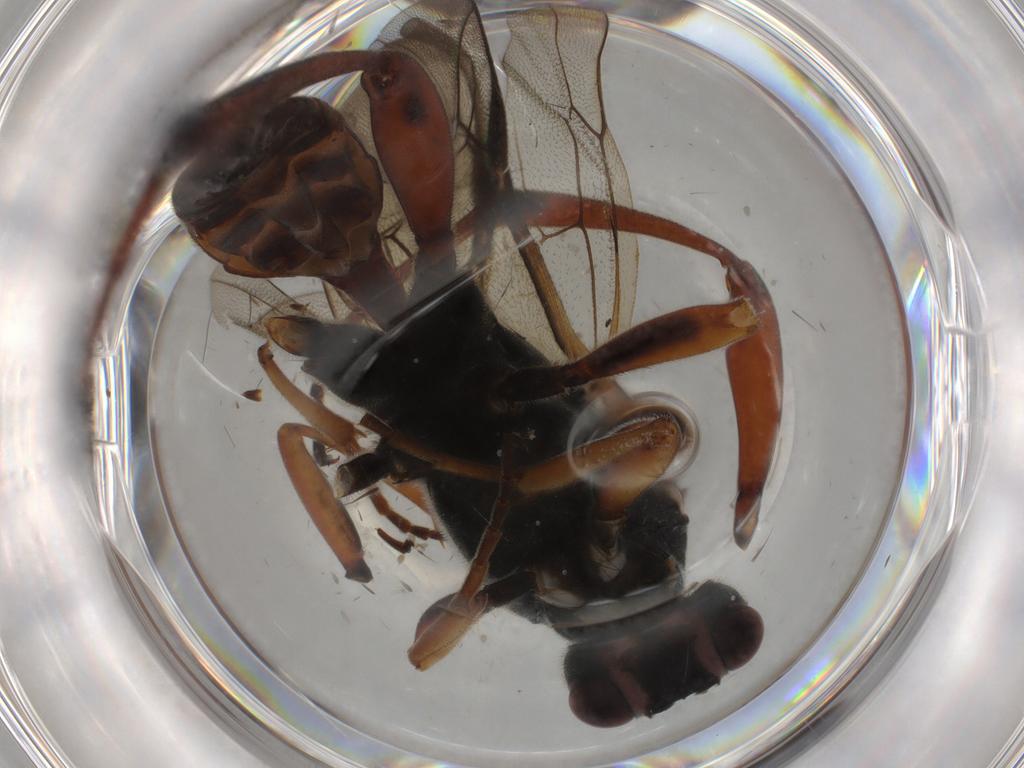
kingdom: Animalia
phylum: Arthropoda
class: Insecta
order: Hymenoptera
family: Ichneumonidae
